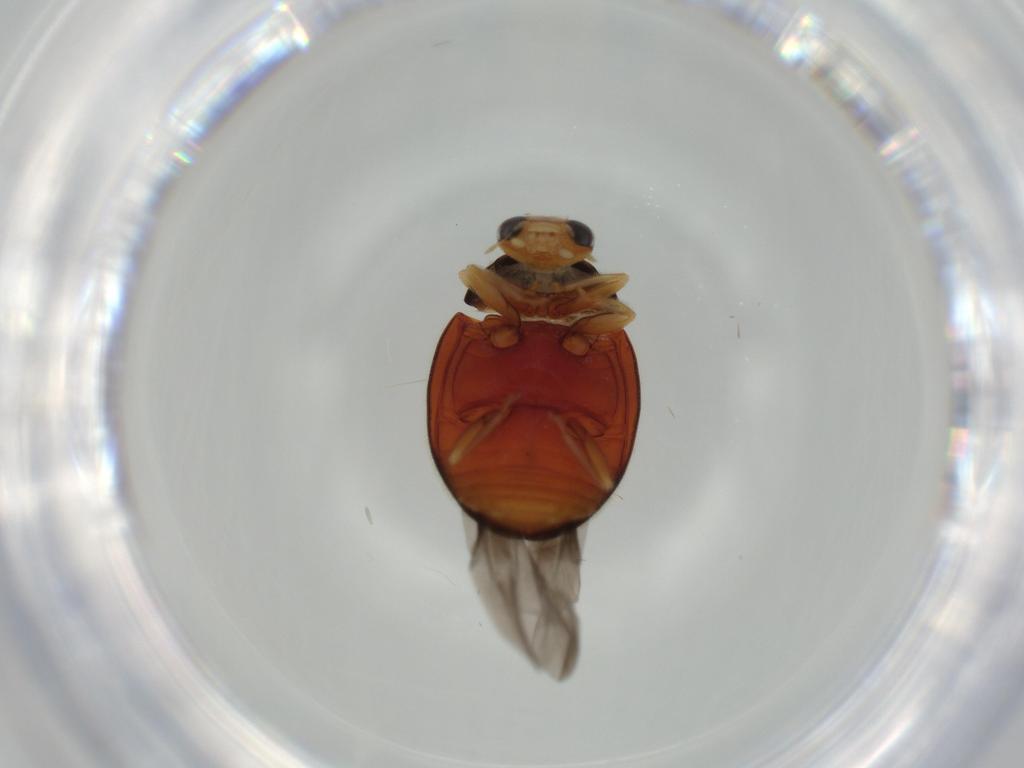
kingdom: Animalia
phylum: Arthropoda
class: Insecta
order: Coleoptera
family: Coccinellidae
